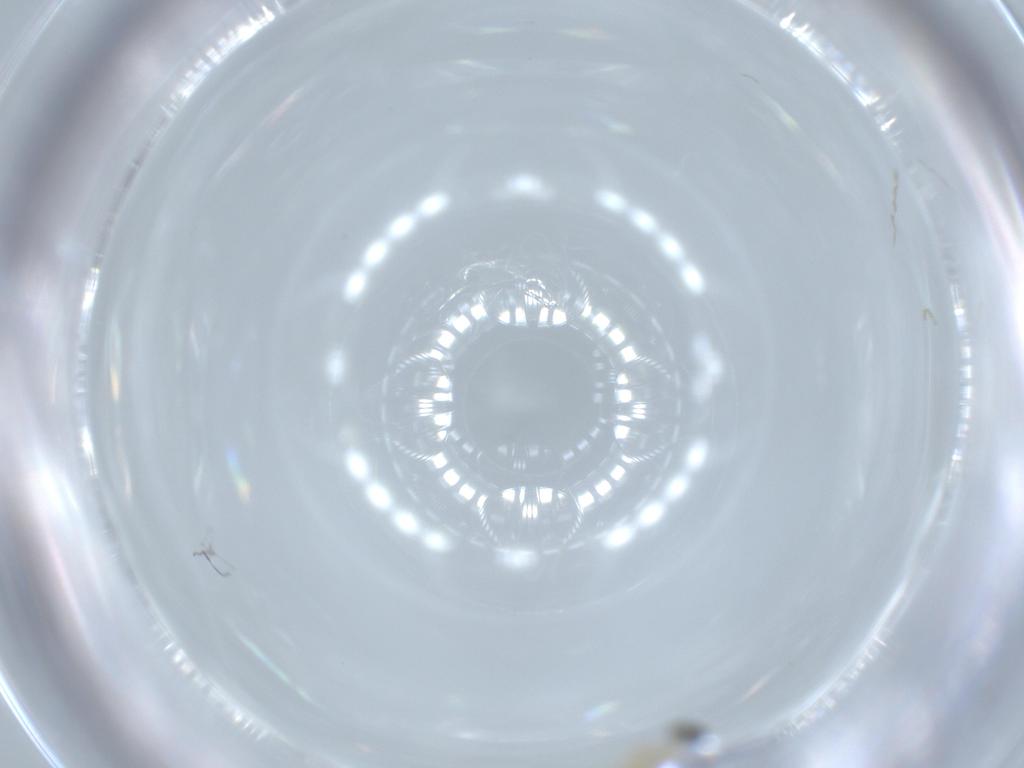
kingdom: Animalia
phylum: Arthropoda
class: Insecta
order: Diptera
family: Cecidomyiidae
